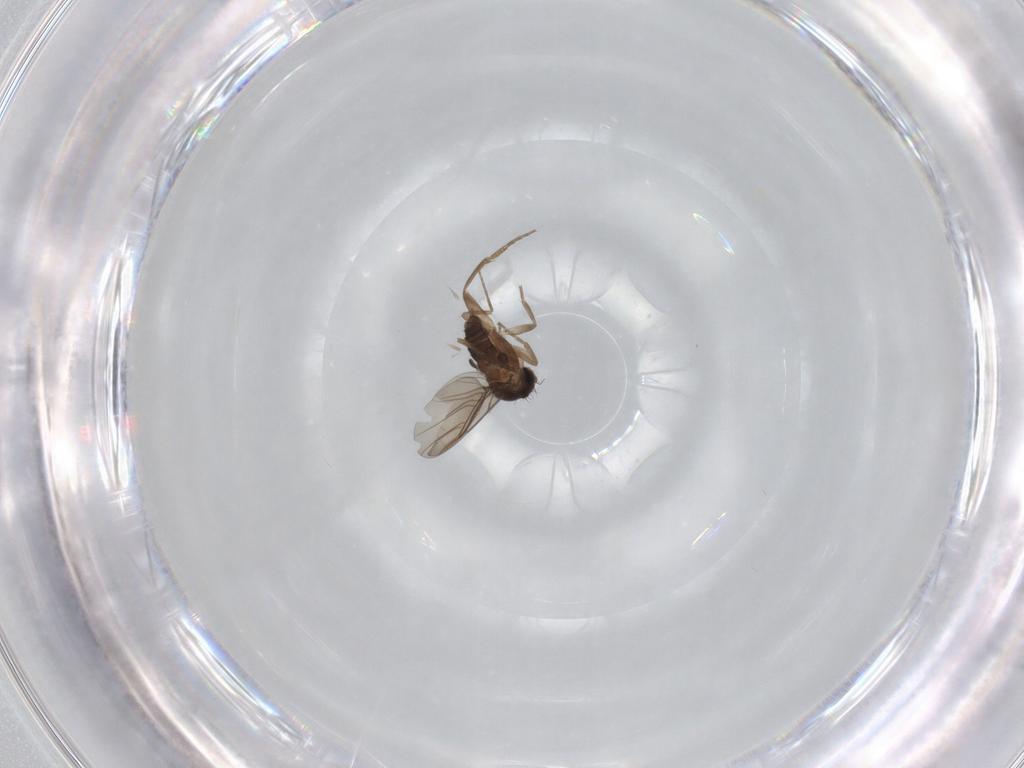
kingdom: Animalia
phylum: Arthropoda
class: Insecta
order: Diptera
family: Phoridae
